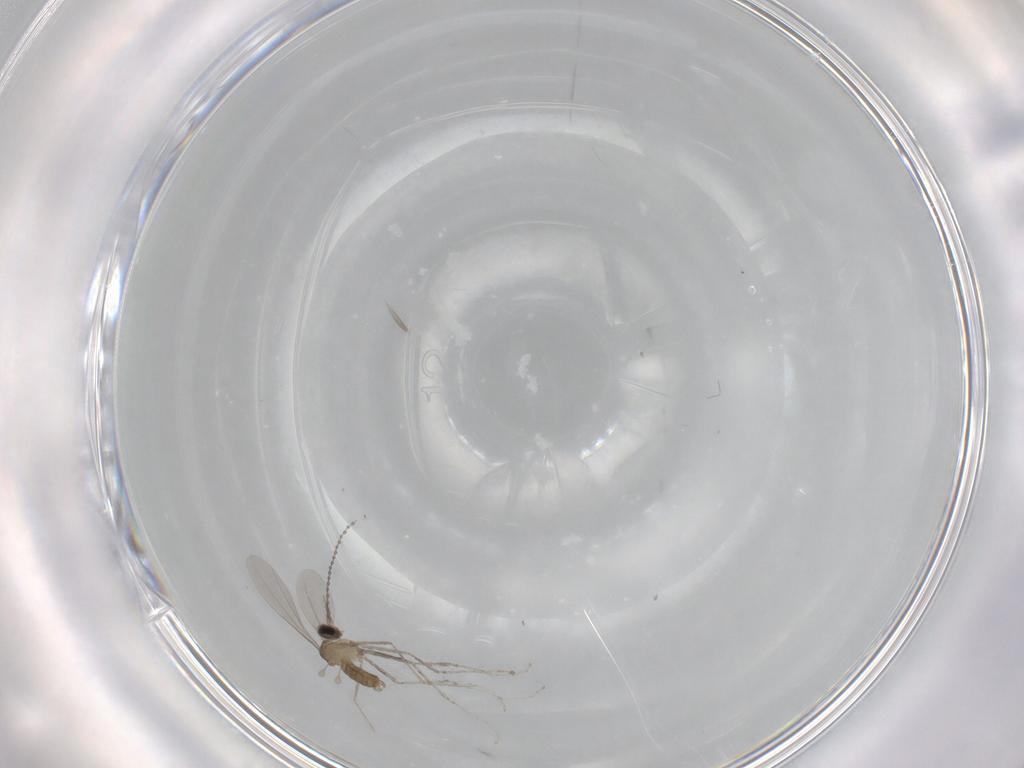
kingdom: Animalia
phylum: Arthropoda
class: Insecta
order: Diptera
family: Cecidomyiidae
